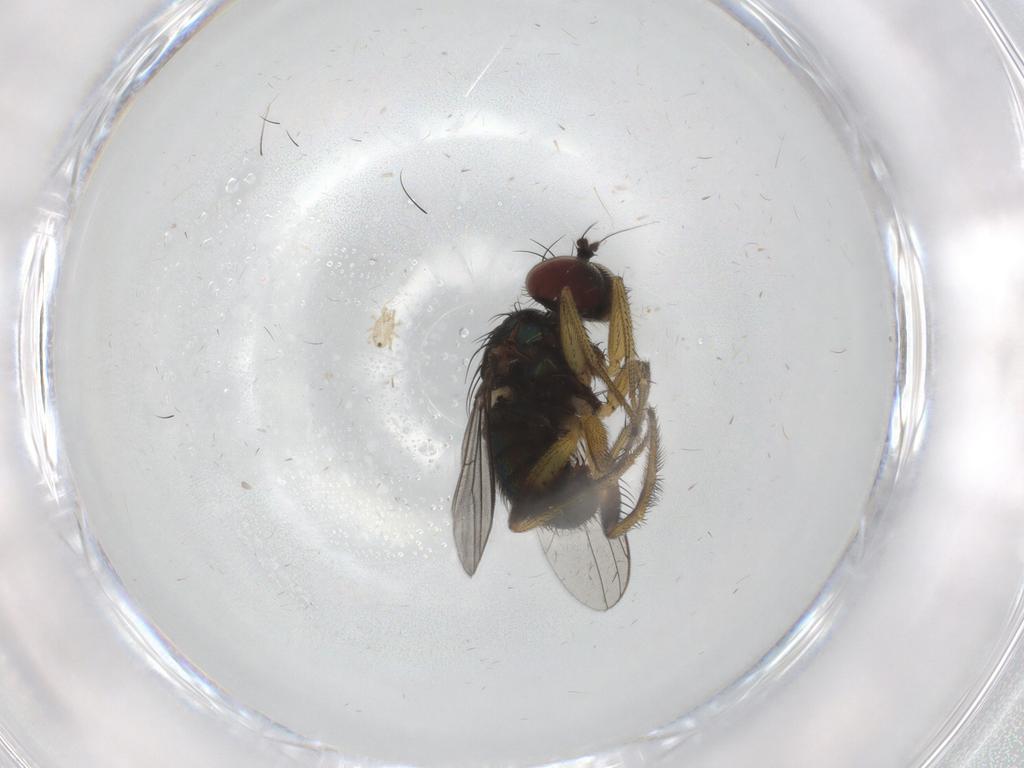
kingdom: Animalia
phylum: Arthropoda
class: Insecta
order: Diptera
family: Dolichopodidae
